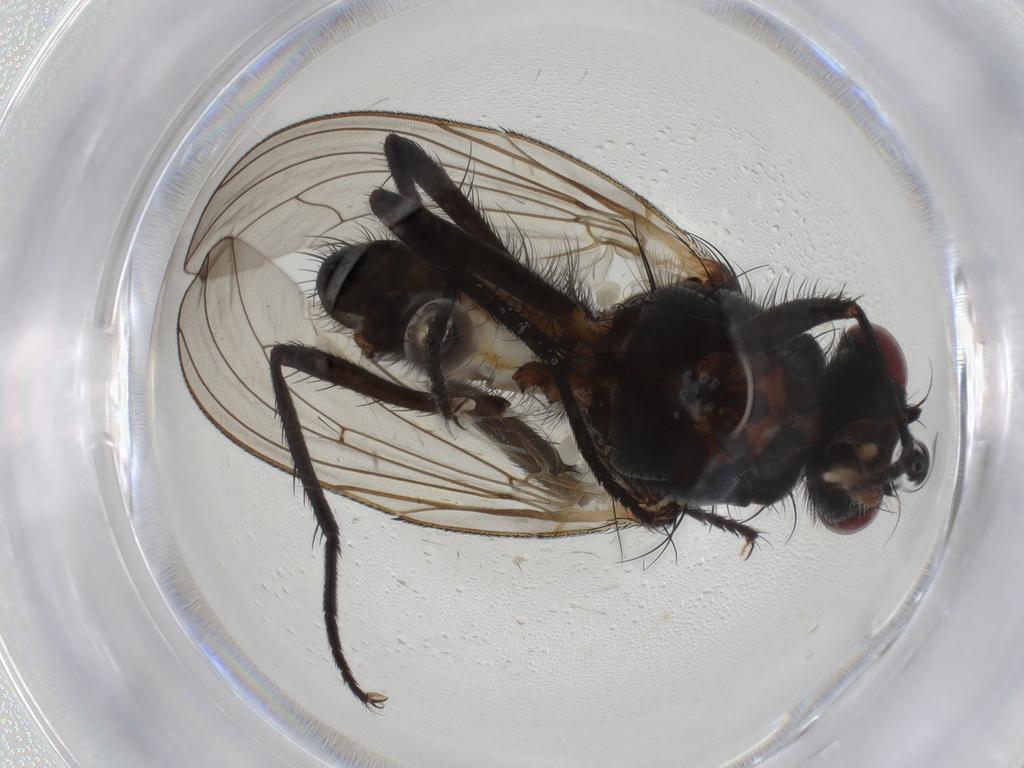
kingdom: Animalia
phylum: Arthropoda
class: Insecta
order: Diptera
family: Anthomyiidae
